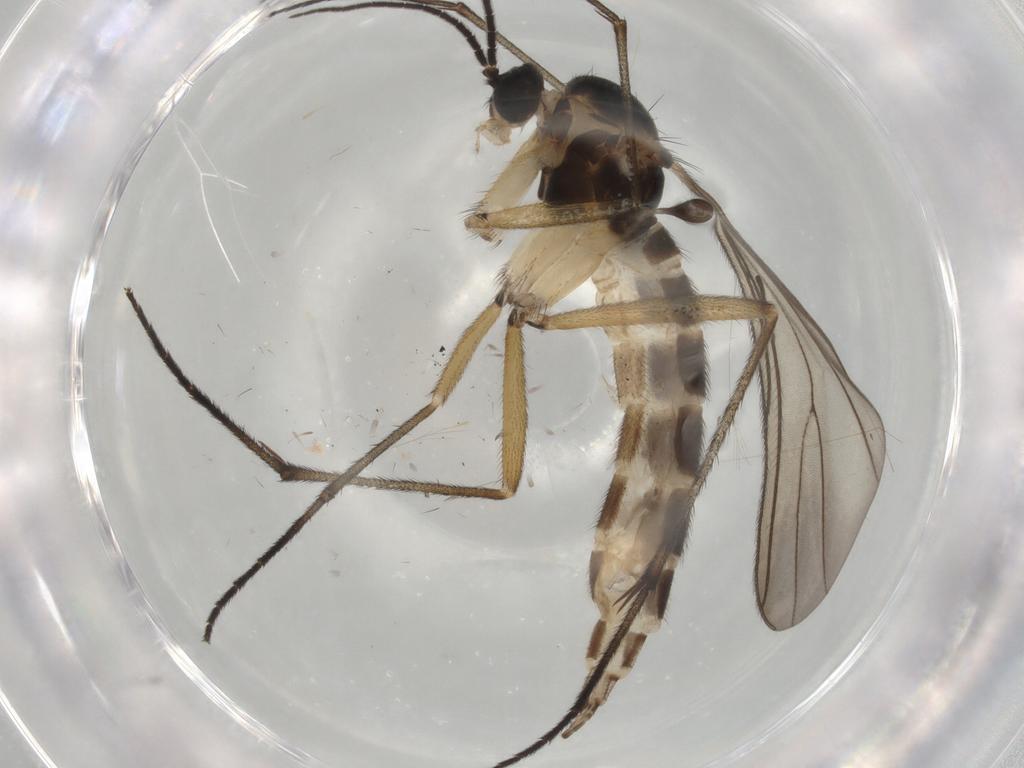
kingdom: Animalia
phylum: Arthropoda
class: Insecta
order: Diptera
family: Sciaridae
